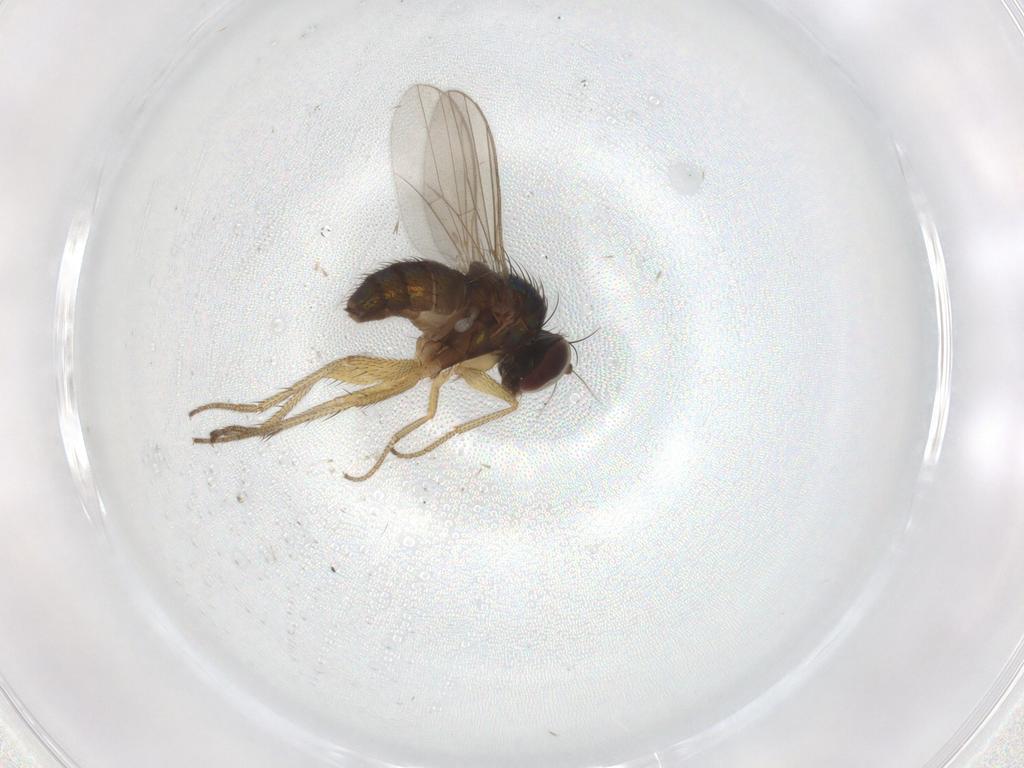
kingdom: Animalia
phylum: Arthropoda
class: Insecta
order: Diptera
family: Dolichopodidae
